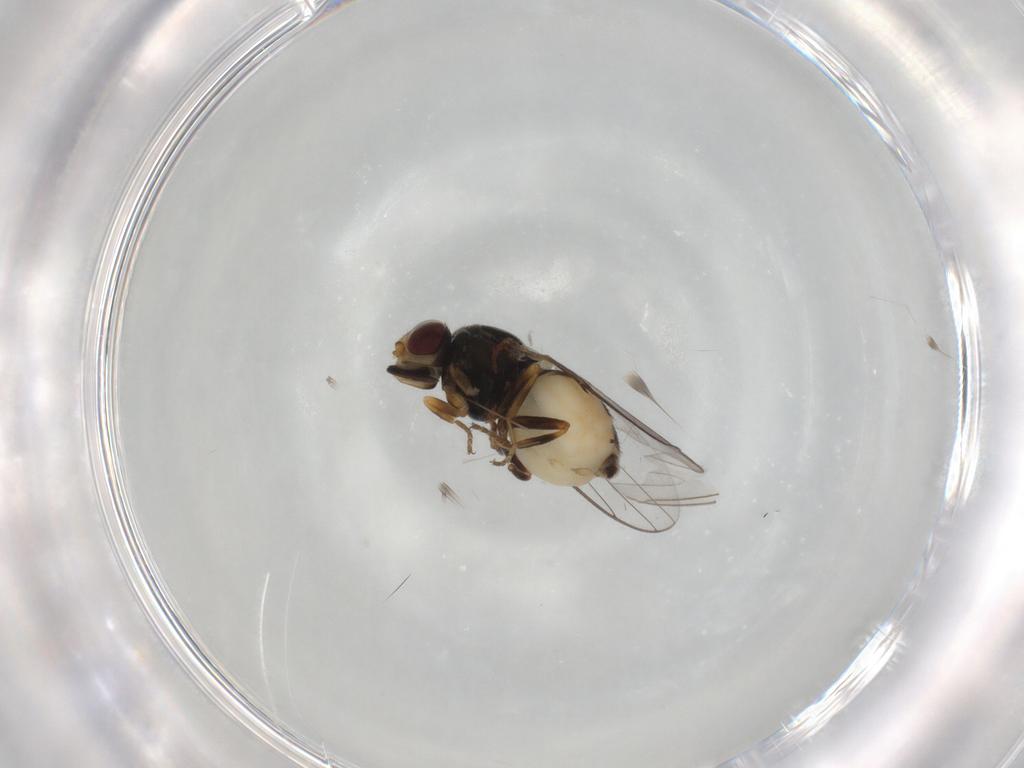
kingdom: Animalia
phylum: Arthropoda
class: Insecta
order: Diptera
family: Chloropidae
